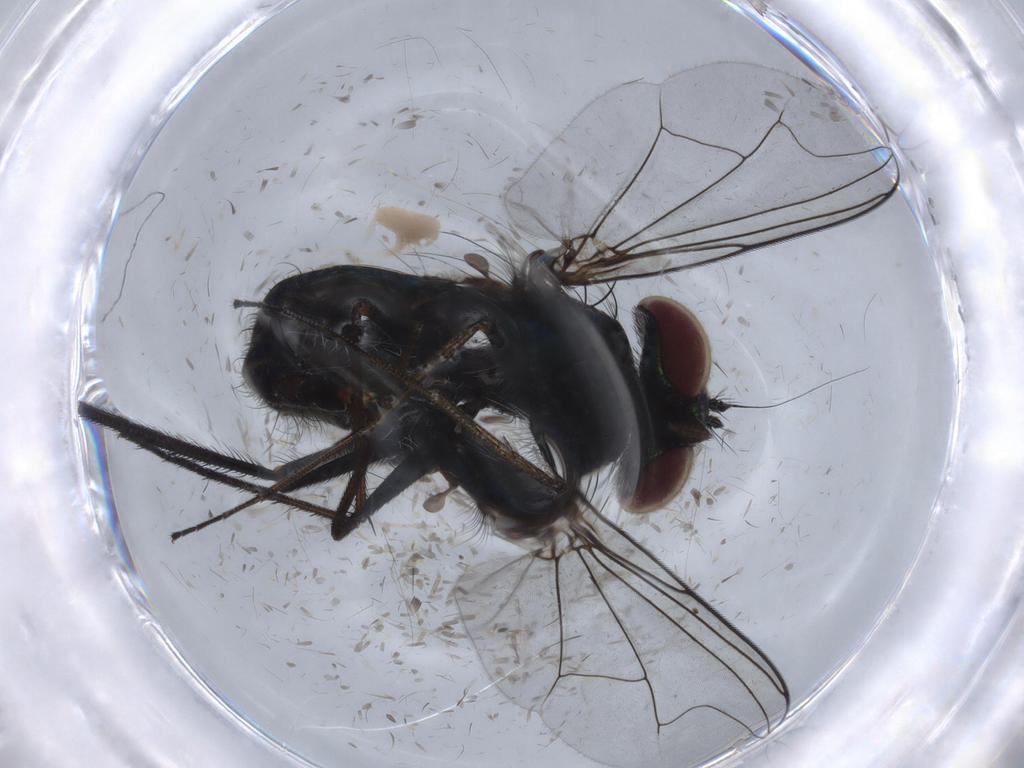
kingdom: Animalia
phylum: Arthropoda
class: Insecta
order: Diptera
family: Dolichopodidae
